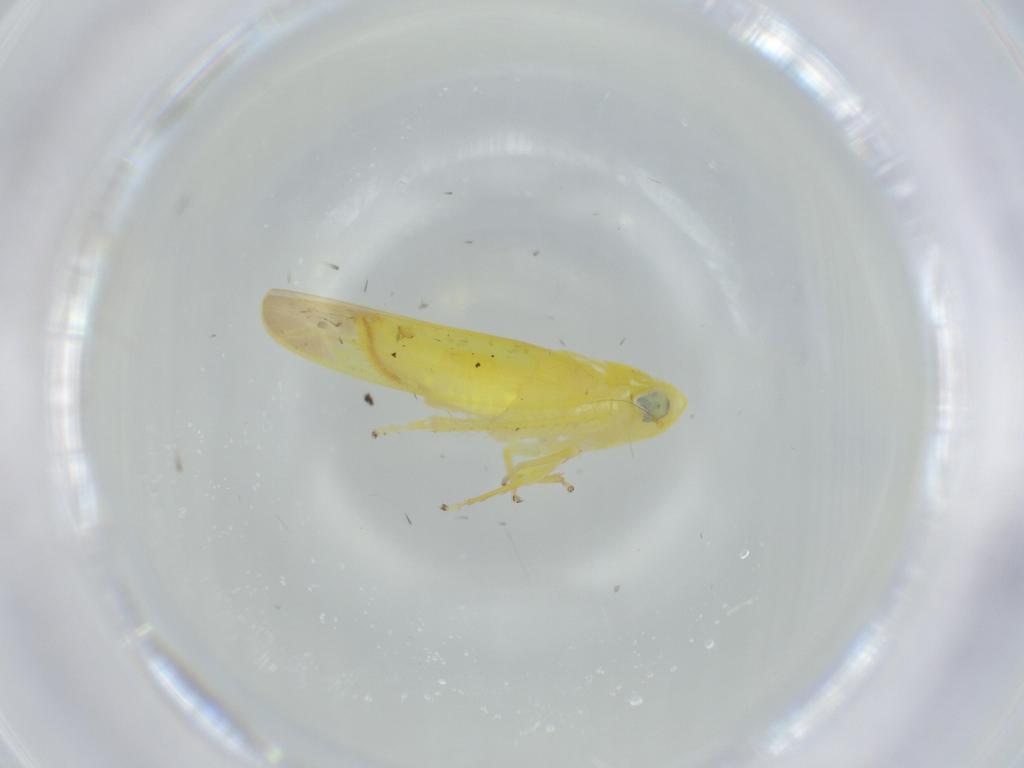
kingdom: Animalia
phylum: Arthropoda
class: Insecta
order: Hemiptera
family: Cicadellidae
